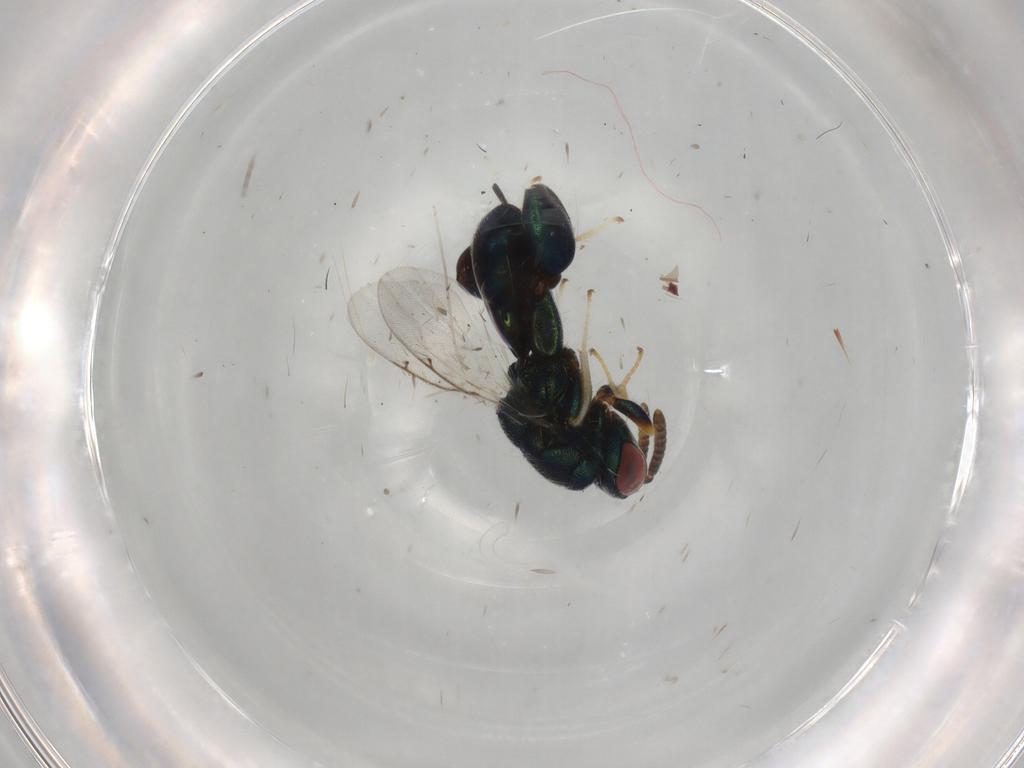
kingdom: Animalia
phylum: Arthropoda
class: Insecta
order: Hymenoptera
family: Torymidae
